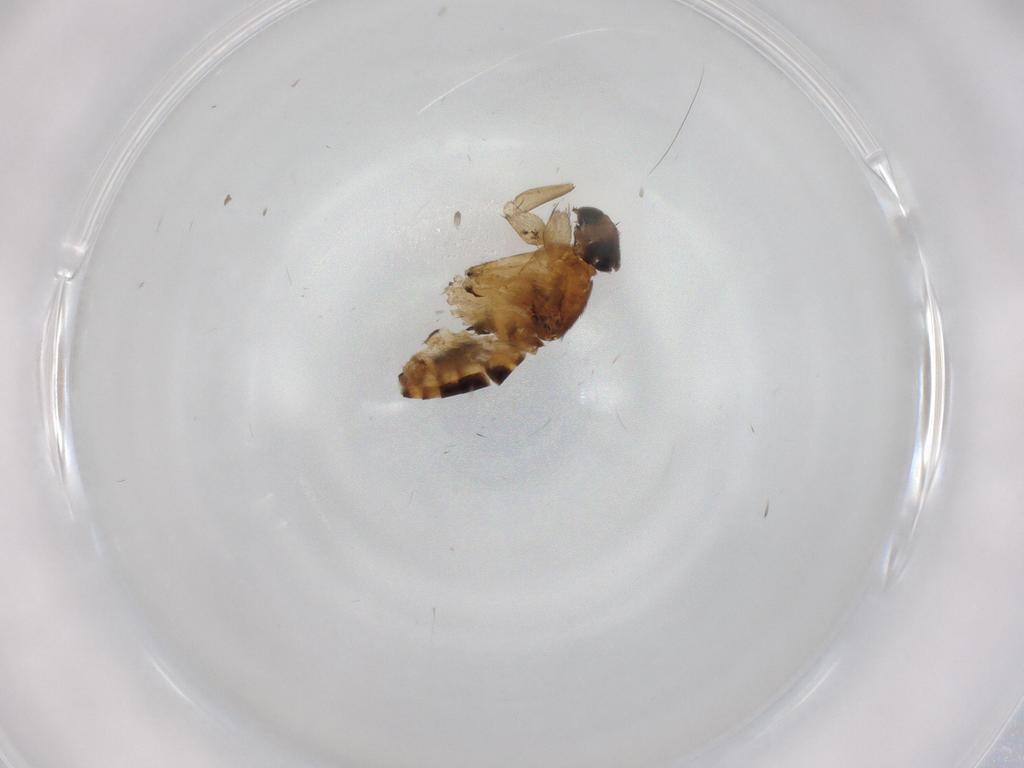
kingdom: Animalia
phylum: Arthropoda
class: Insecta
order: Diptera
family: Phoridae
